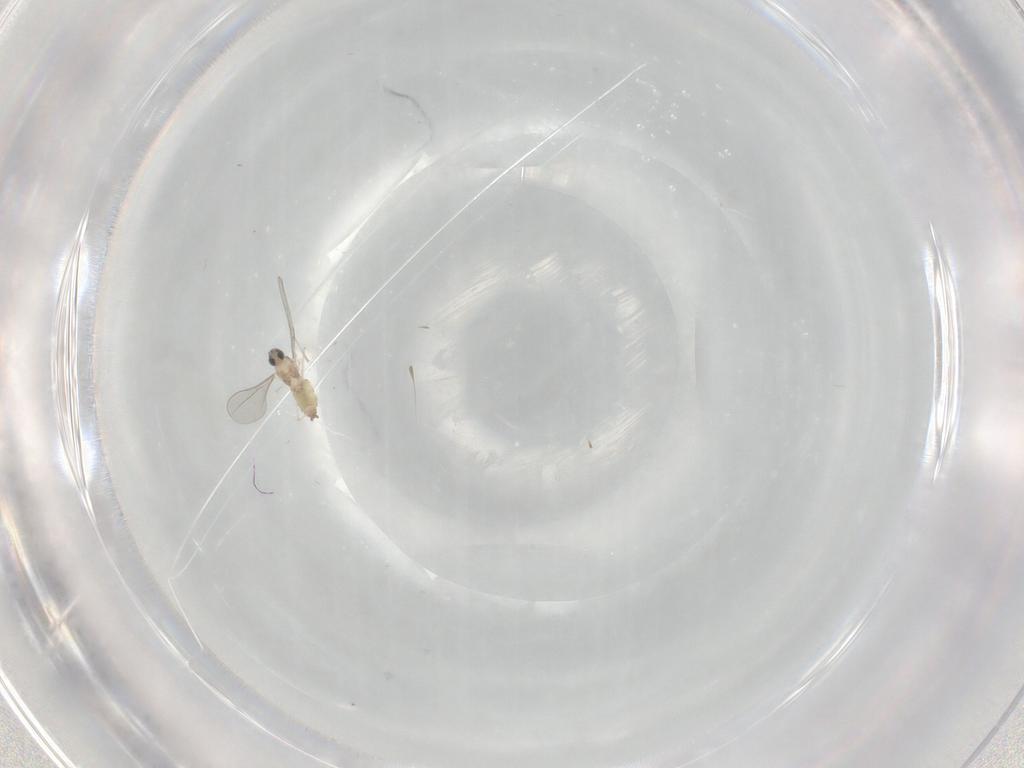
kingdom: Animalia
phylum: Arthropoda
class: Insecta
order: Diptera
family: Cecidomyiidae
